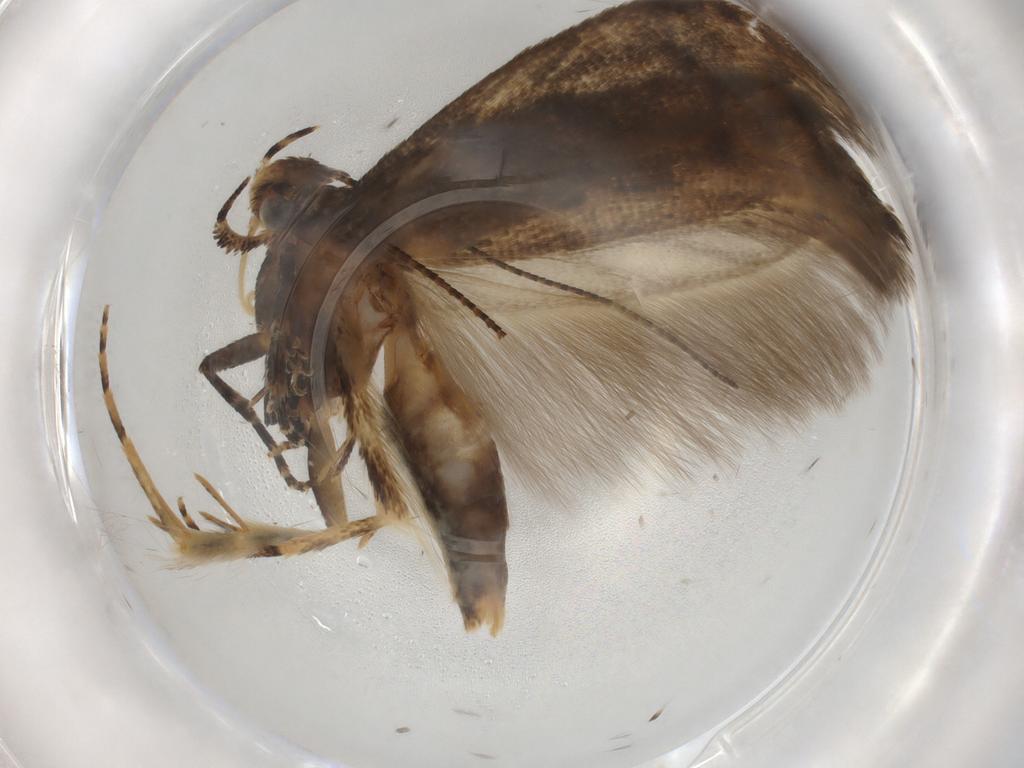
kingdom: Animalia
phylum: Arthropoda
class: Insecta
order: Lepidoptera
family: Gelechiidae
